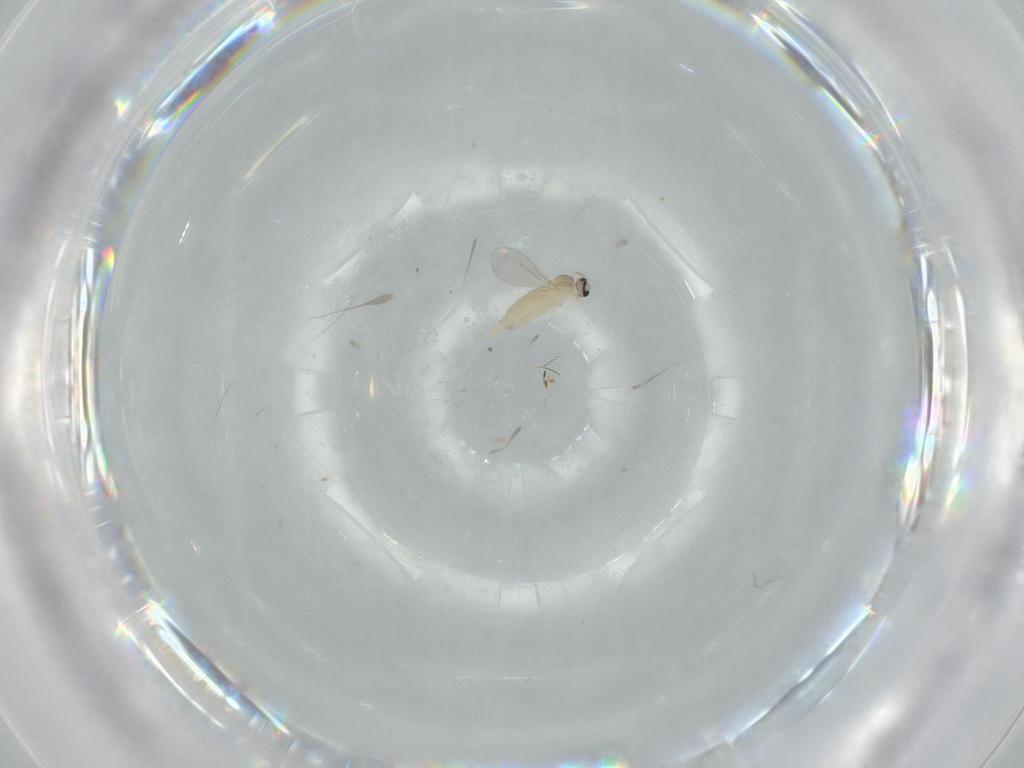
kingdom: Animalia
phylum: Arthropoda
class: Insecta
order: Diptera
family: Cecidomyiidae
